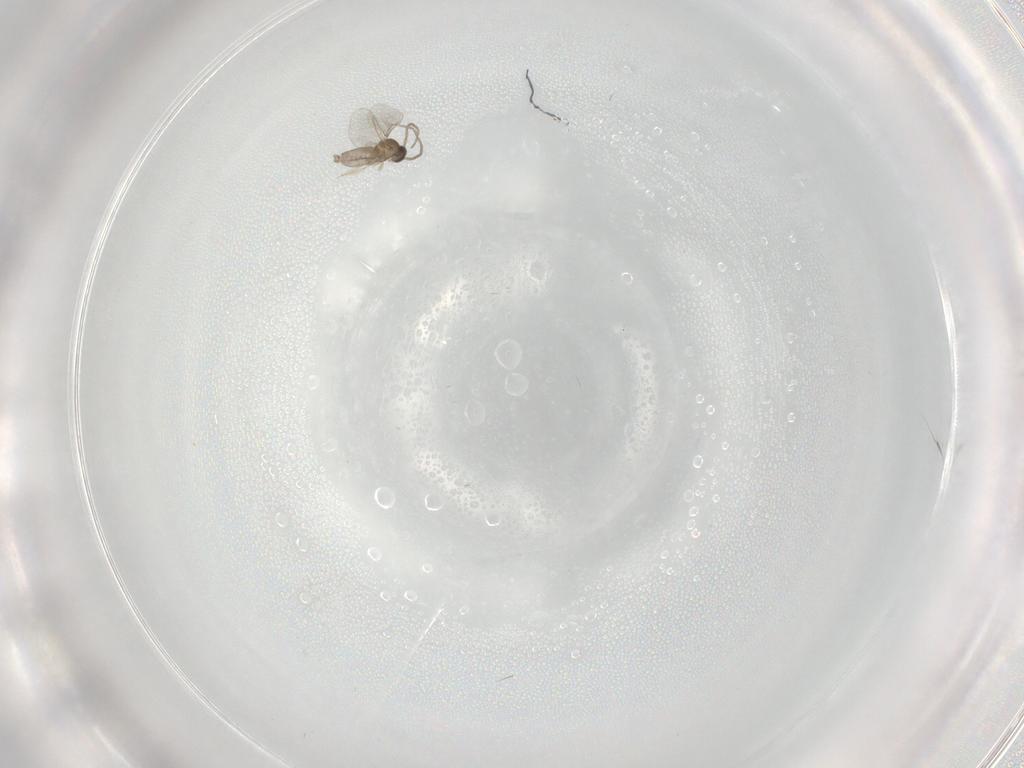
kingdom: Animalia
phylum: Arthropoda
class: Insecta
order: Diptera
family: Cecidomyiidae
